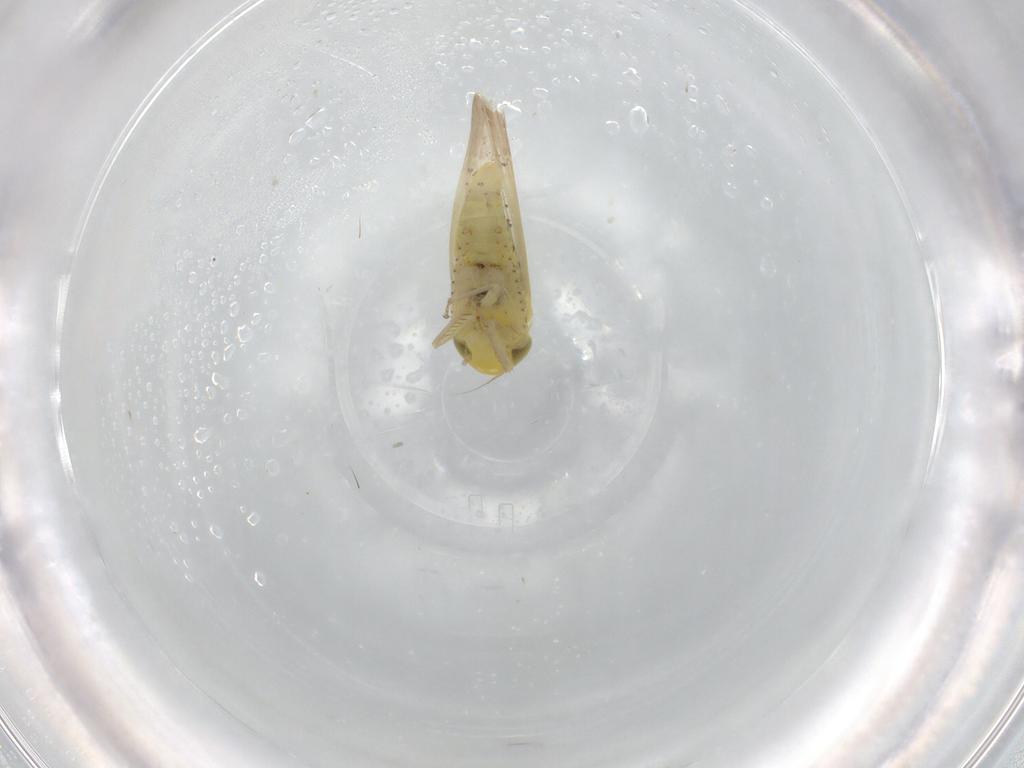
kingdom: Animalia
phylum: Arthropoda
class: Insecta
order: Hemiptera
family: Cicadellidae
